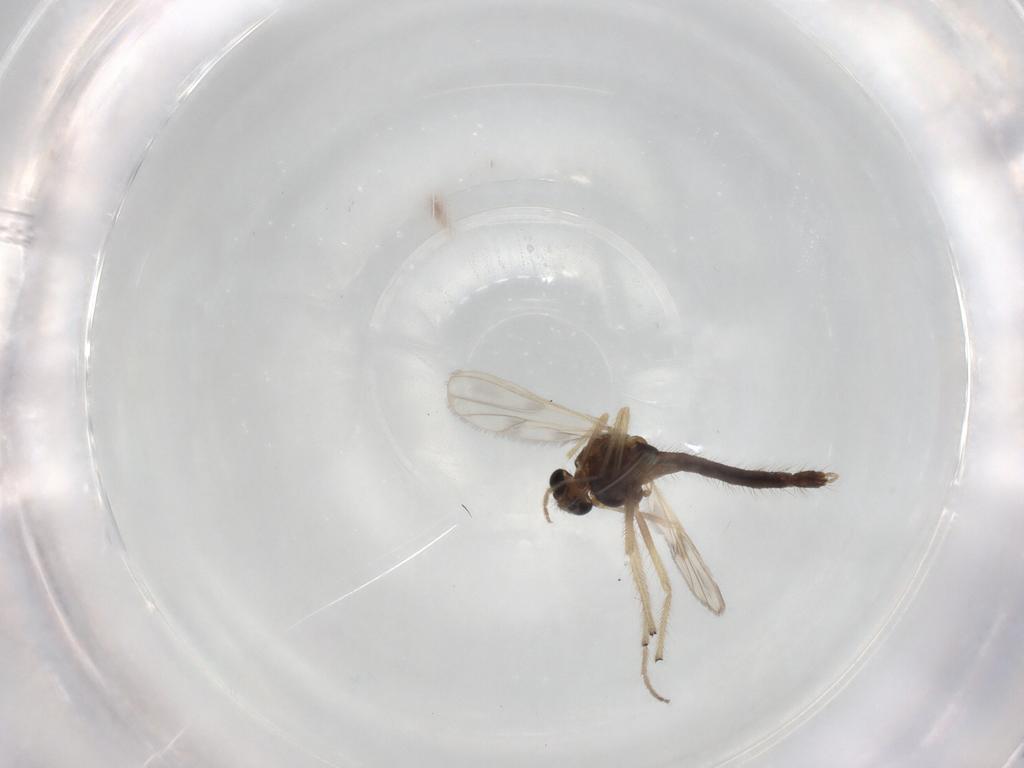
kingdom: Animalia
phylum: Arthropoda
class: Insecta
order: Diptera
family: Chironomidae
